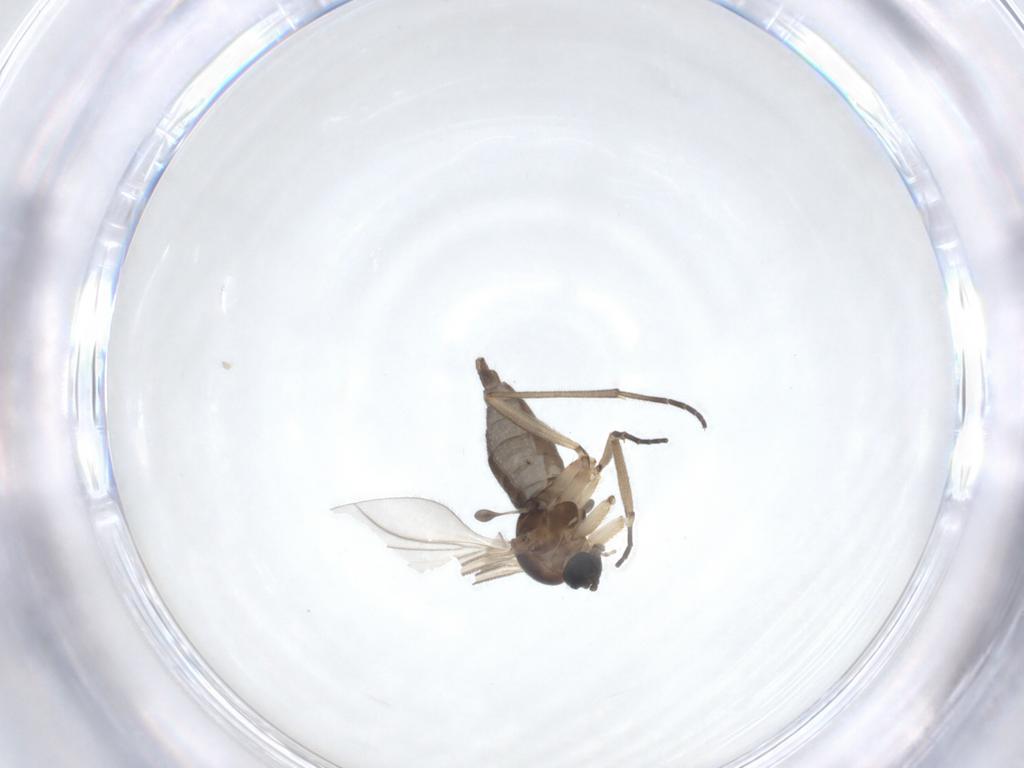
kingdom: Animalia
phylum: Arthropoda
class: Insecta
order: Diptera
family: Sciaridae
